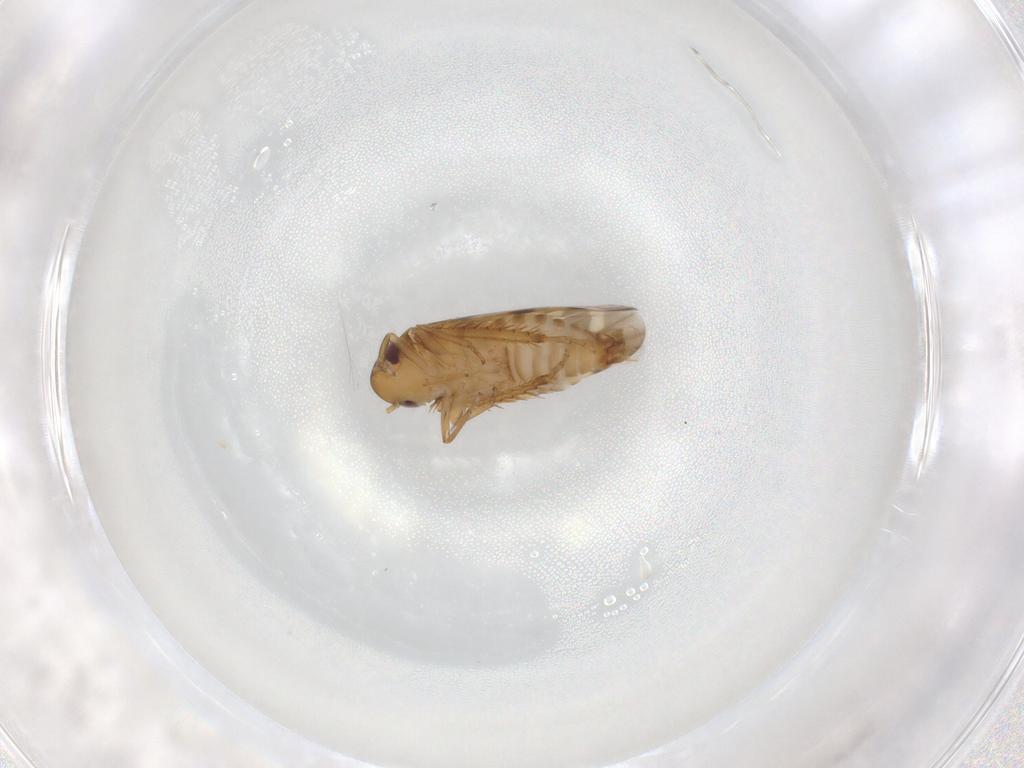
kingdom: Animalia
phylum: Arthropoda
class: Insecta
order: Hemiptera
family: Cicadellidae
